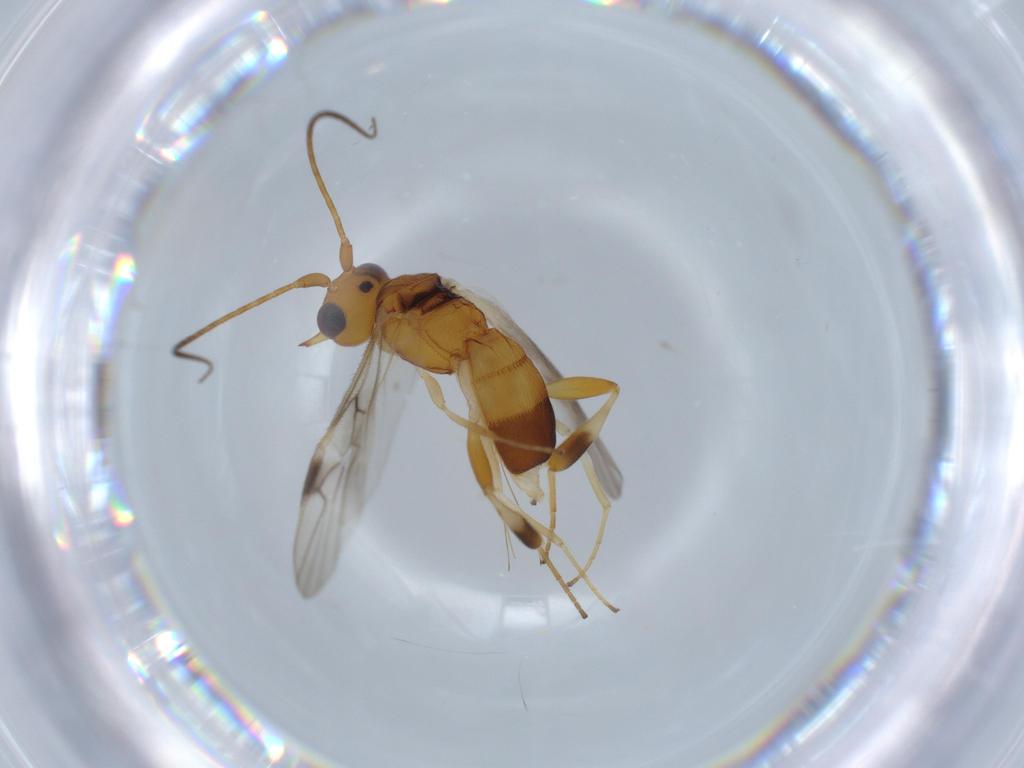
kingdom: Animalia
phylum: Arthropoda
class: Insecta
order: Hymenoptera
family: Bethylidae
